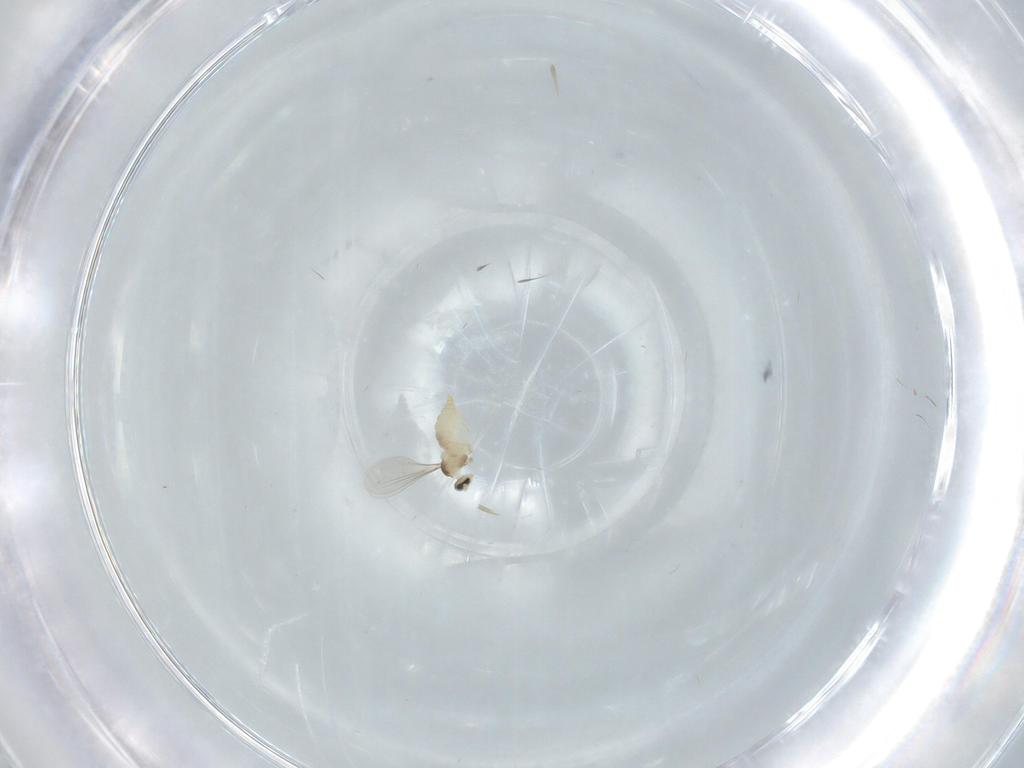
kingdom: Animalia
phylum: Arthropoda
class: Insecta
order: Diptera
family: Cecidomyiidae
